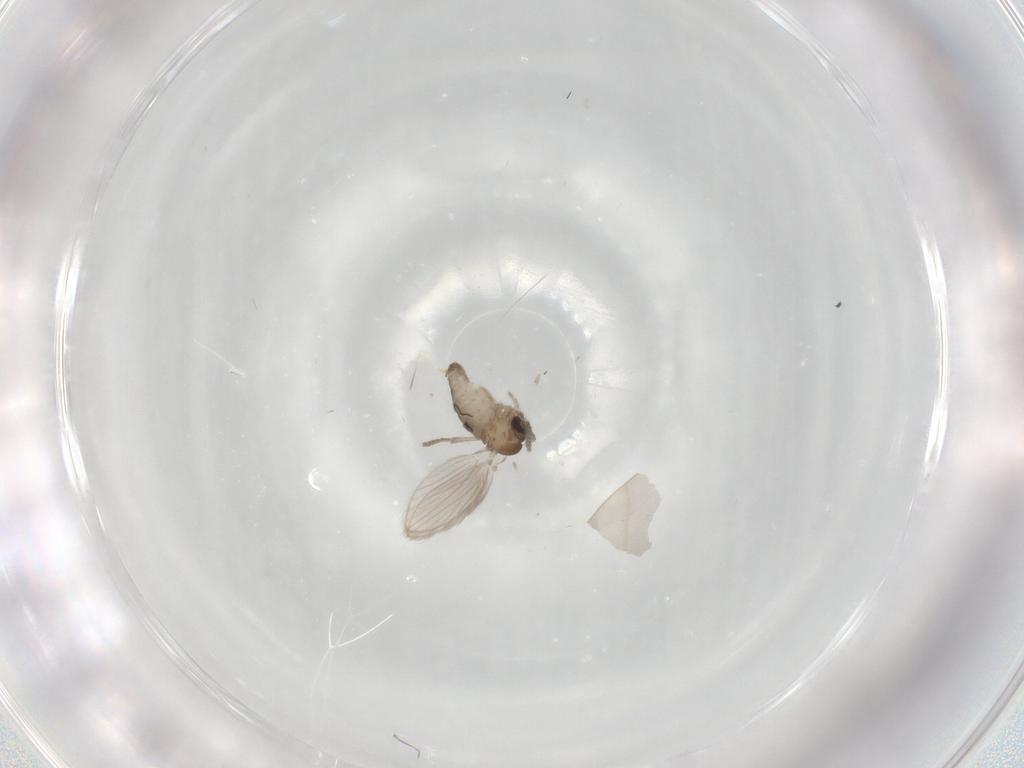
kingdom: Animalia
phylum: Arthropoda
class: Insecta
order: Diptera
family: Psychodidae
